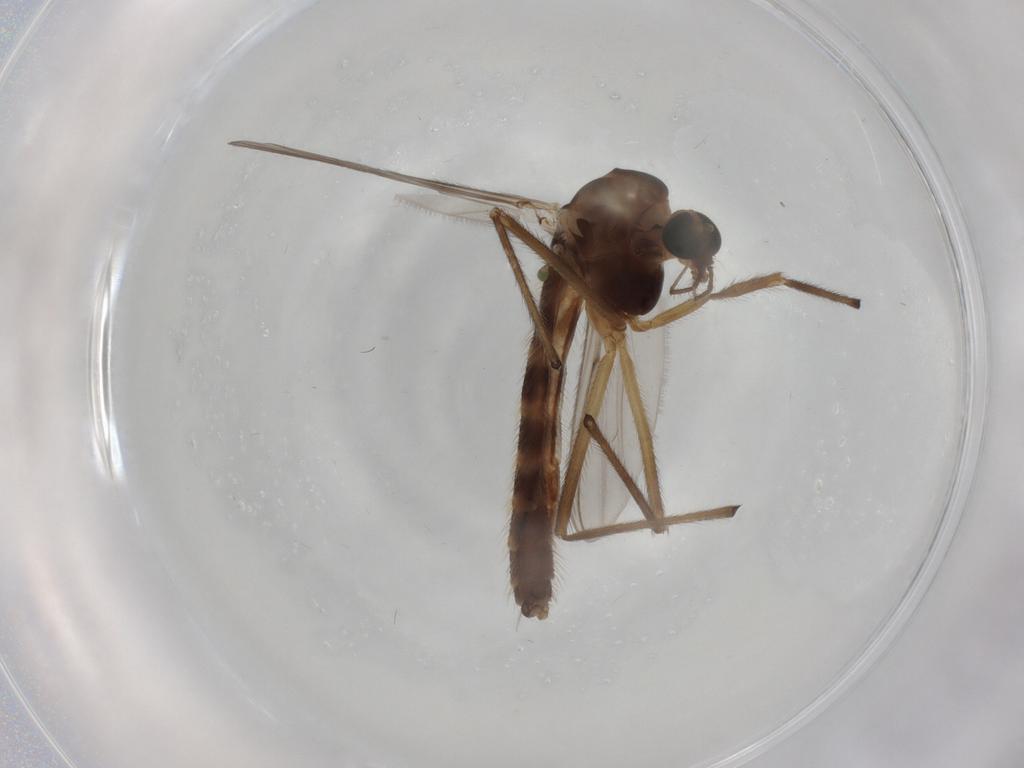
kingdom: Animalia
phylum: Arthropoda
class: Insecta
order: Diptera
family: Chironomidae
